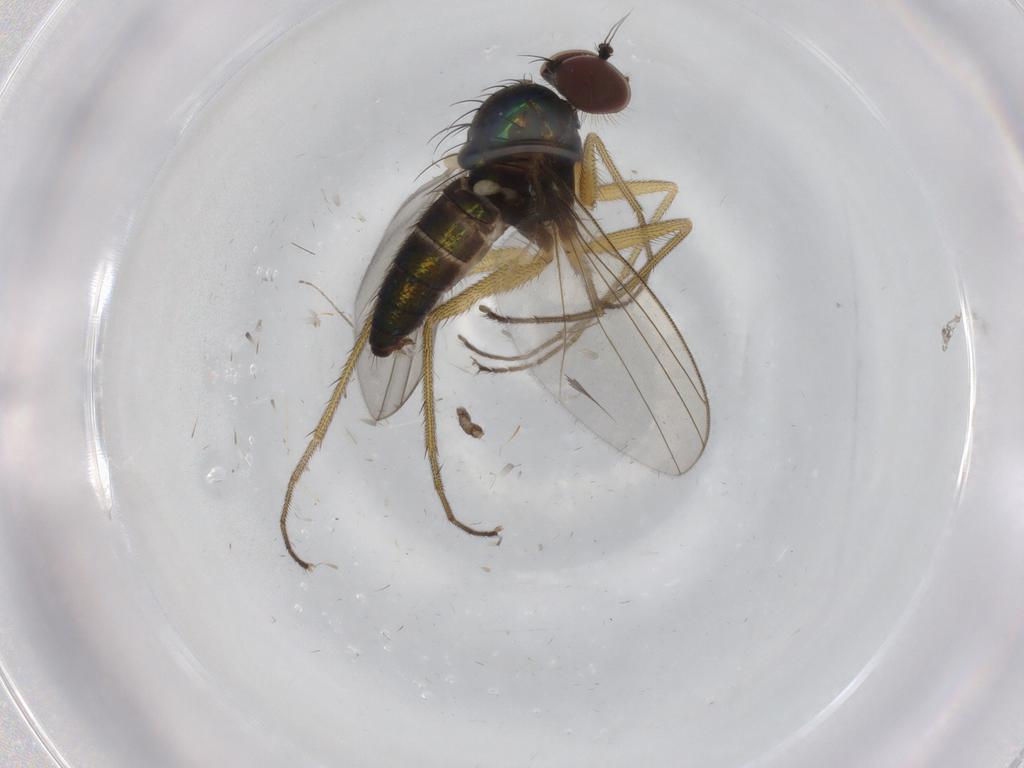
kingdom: Animalia
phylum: Arthropoda
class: Insecta
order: Diptera
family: Dolichopodidae
